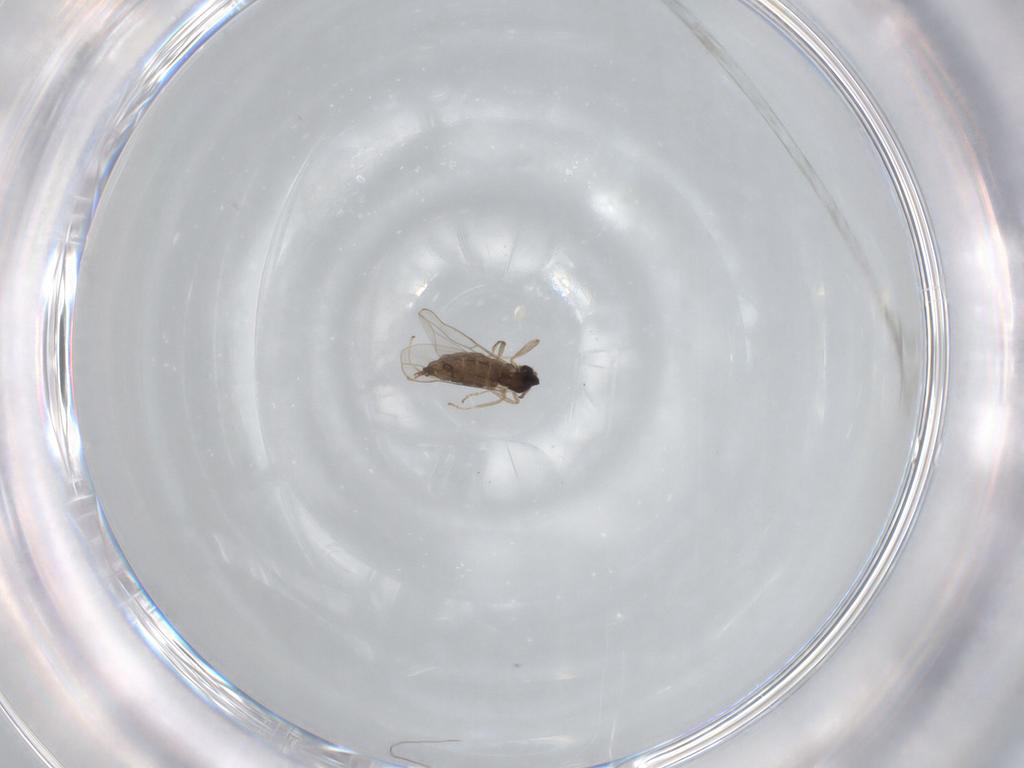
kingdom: Animalia
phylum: Arthropoda
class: Insecta
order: Diptera
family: Cecidomyiidae
